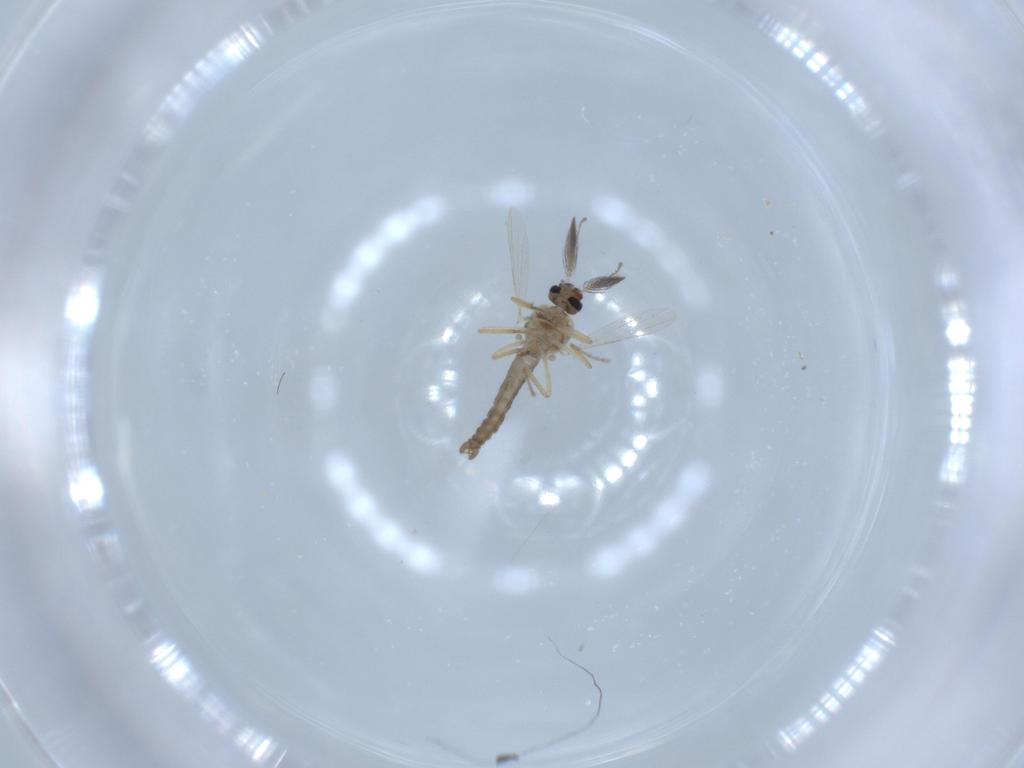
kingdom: Animalia
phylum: Arthropoda
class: Insecta
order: Diptera
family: Ceratopogonidae
